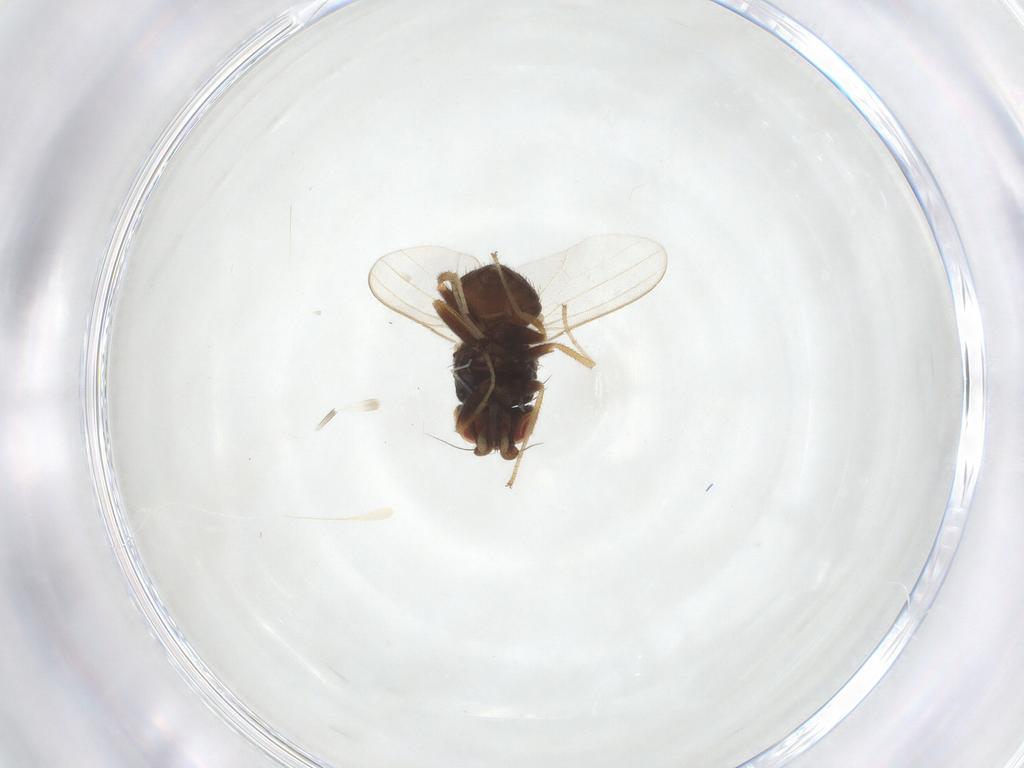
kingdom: Animalia
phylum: Arthropoda
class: Insecta
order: Diptera
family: Milichiidae
